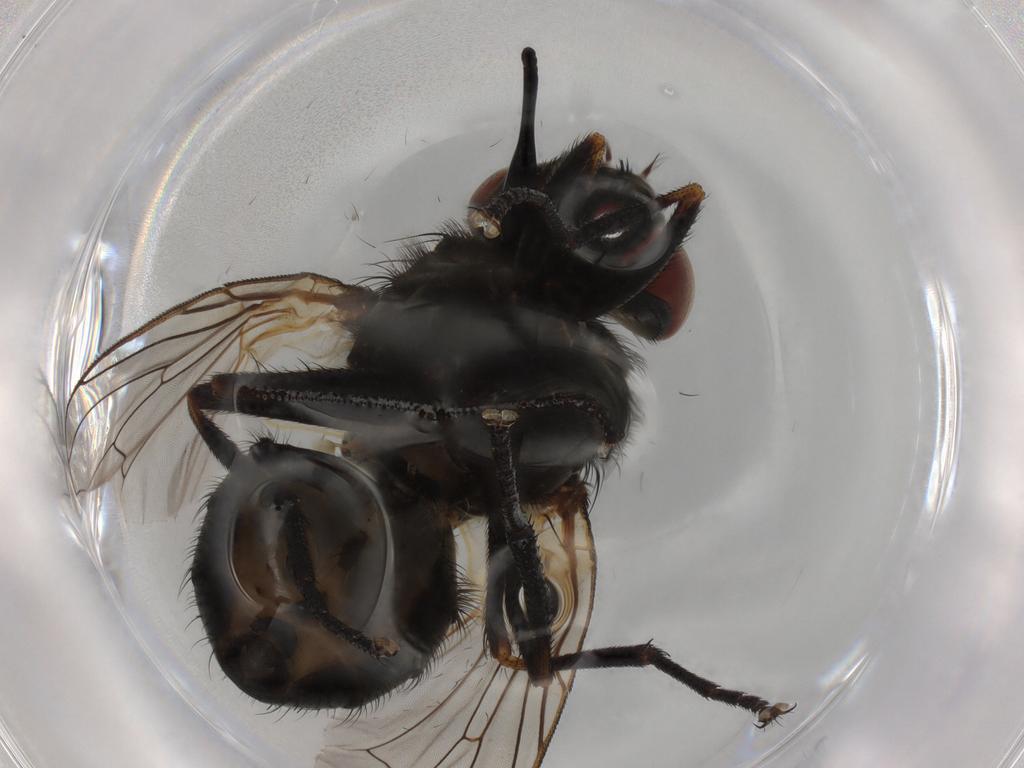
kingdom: Animalia
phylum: Arthropoda
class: Insecta
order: Diptera
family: Muscidae
